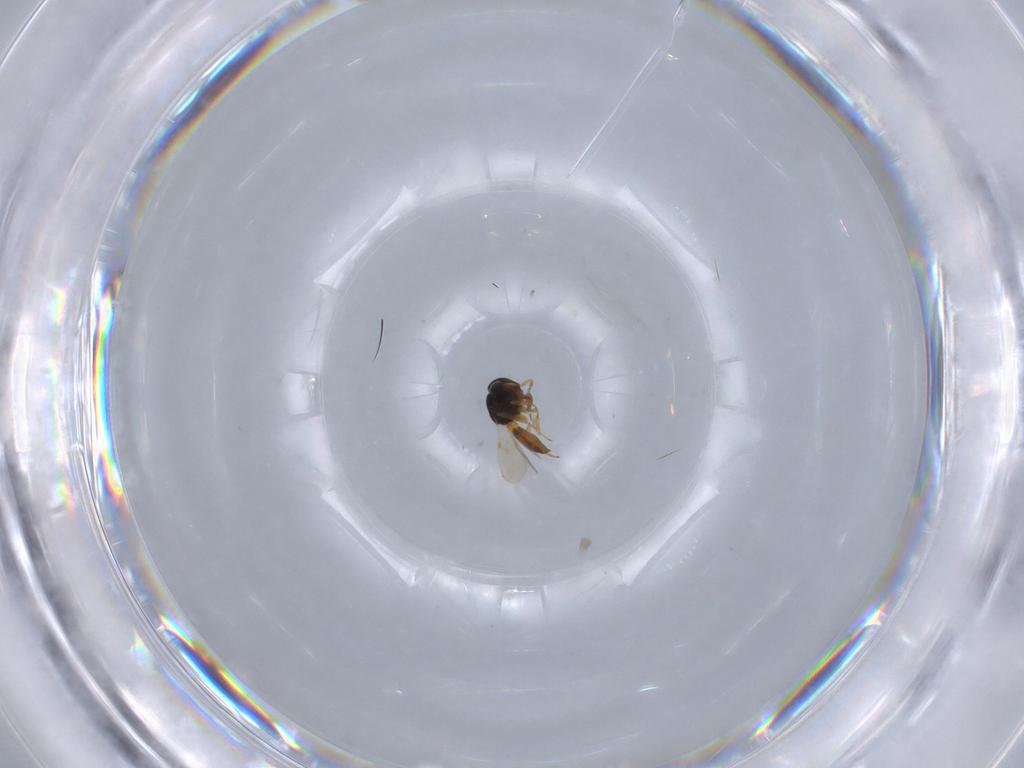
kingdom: Animalia
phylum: Arthropoda
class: Insecta
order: Hymenoptera
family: Scelionidae
